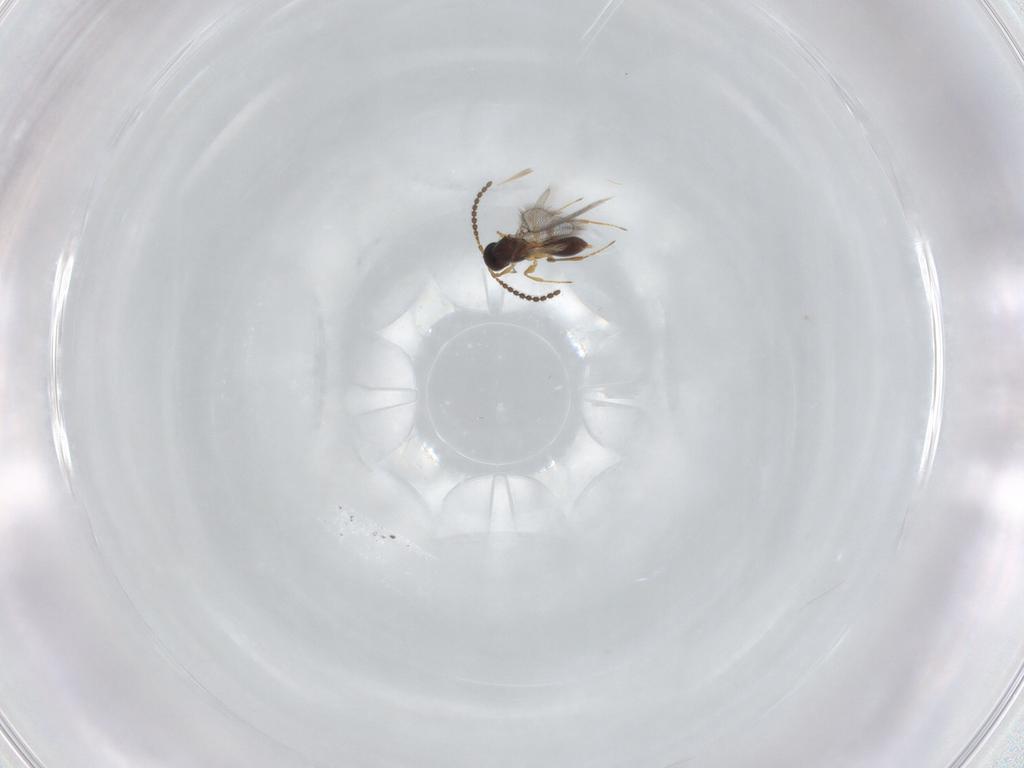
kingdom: Animalia
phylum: Arthropoda
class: Insecta
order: Hymenoptera
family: Figitidae
